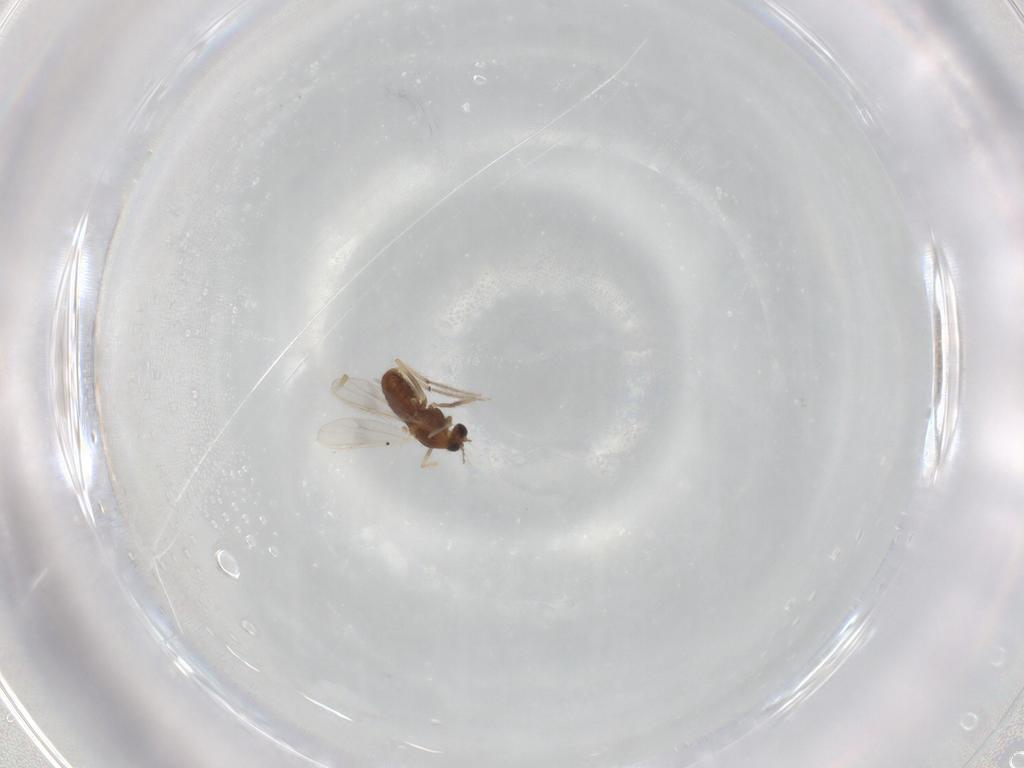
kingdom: Animalia
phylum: Arthropoda
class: Insecta
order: Diptera
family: Chironomidae
